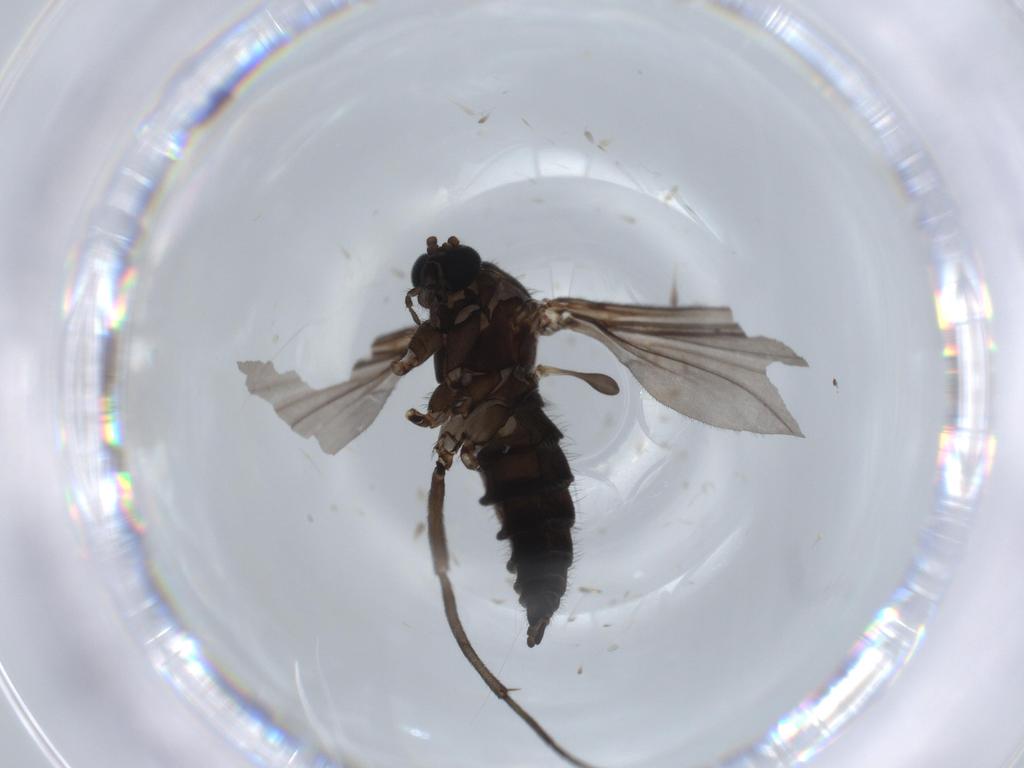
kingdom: Animalia
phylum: Arthropoda
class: Insecta
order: Diptera
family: Sciaridae
